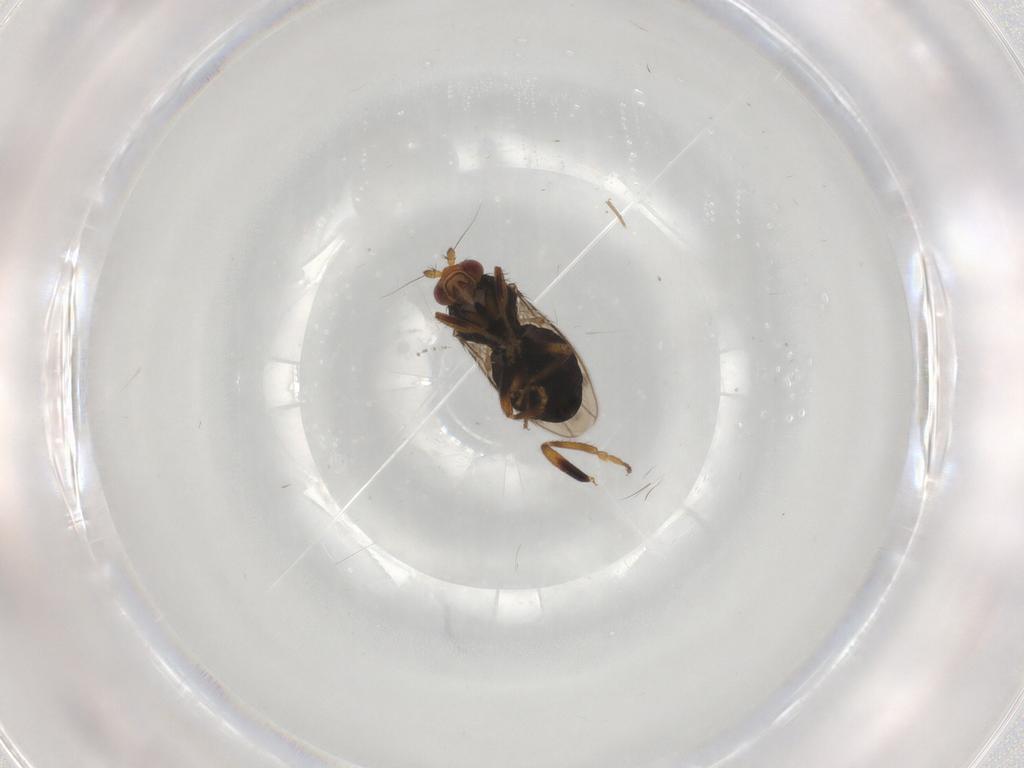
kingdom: Animalia
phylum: Arthropoda
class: Insecta
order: Diptera
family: Sphaeroceridae
